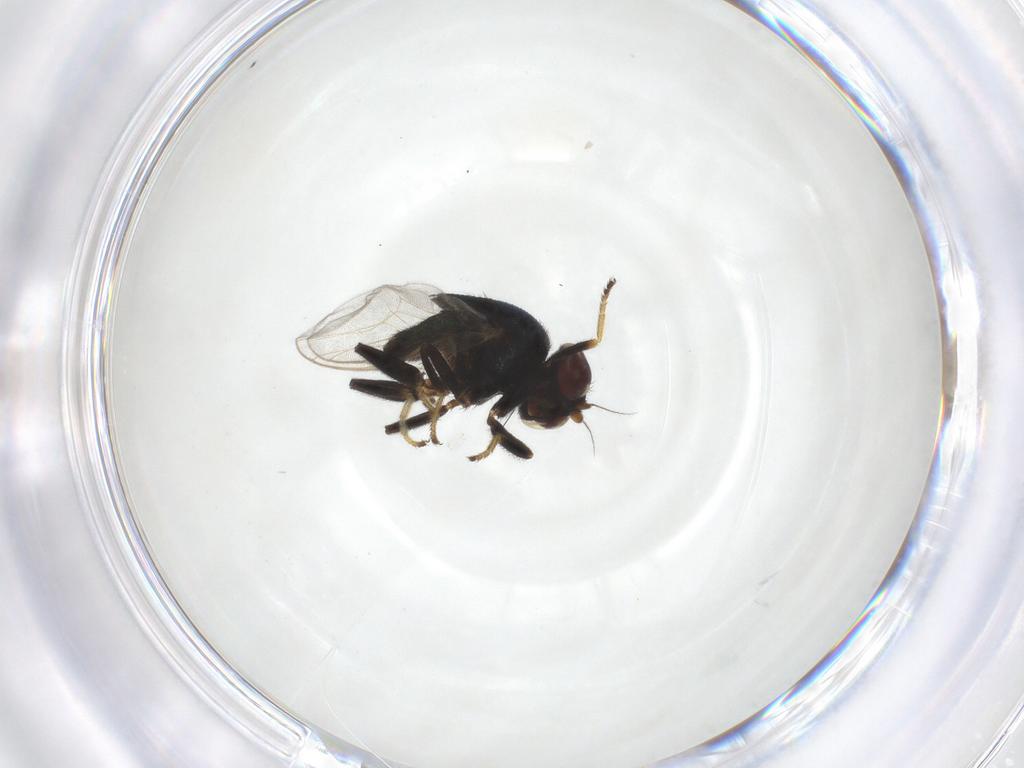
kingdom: Animalia
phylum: Arthropoda
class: Insecta
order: Diptera
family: Chloropidae
